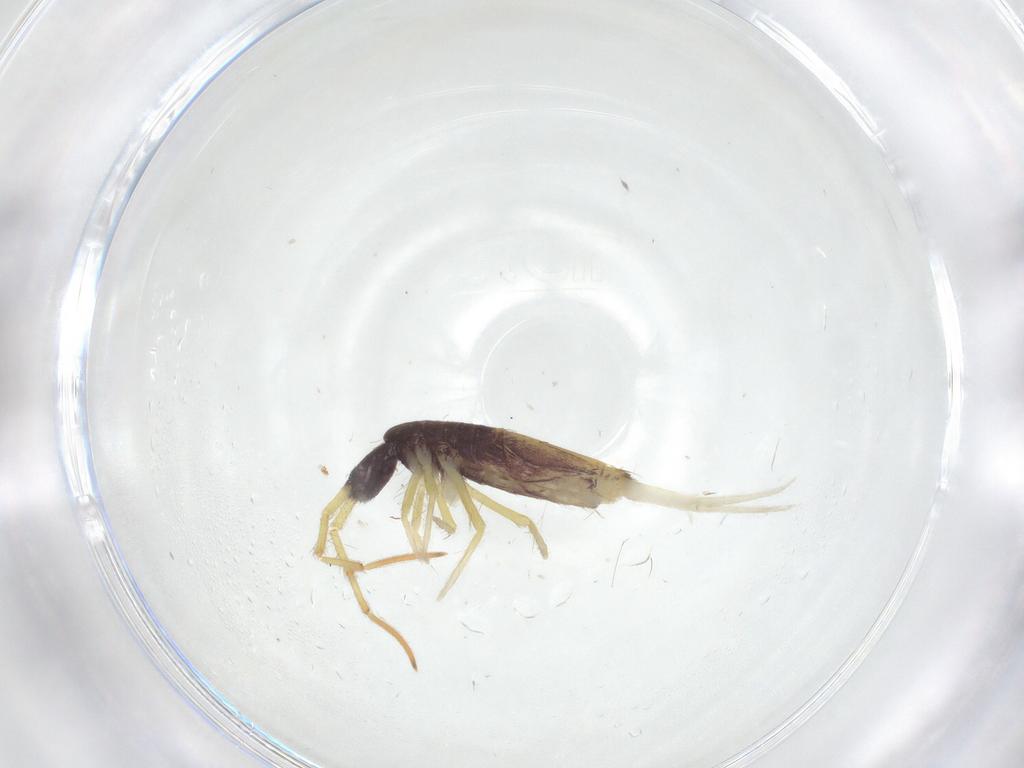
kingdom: Animalia
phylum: Arthropoda
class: Collembola
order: Entomobryomorpha
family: Entomobryidae
